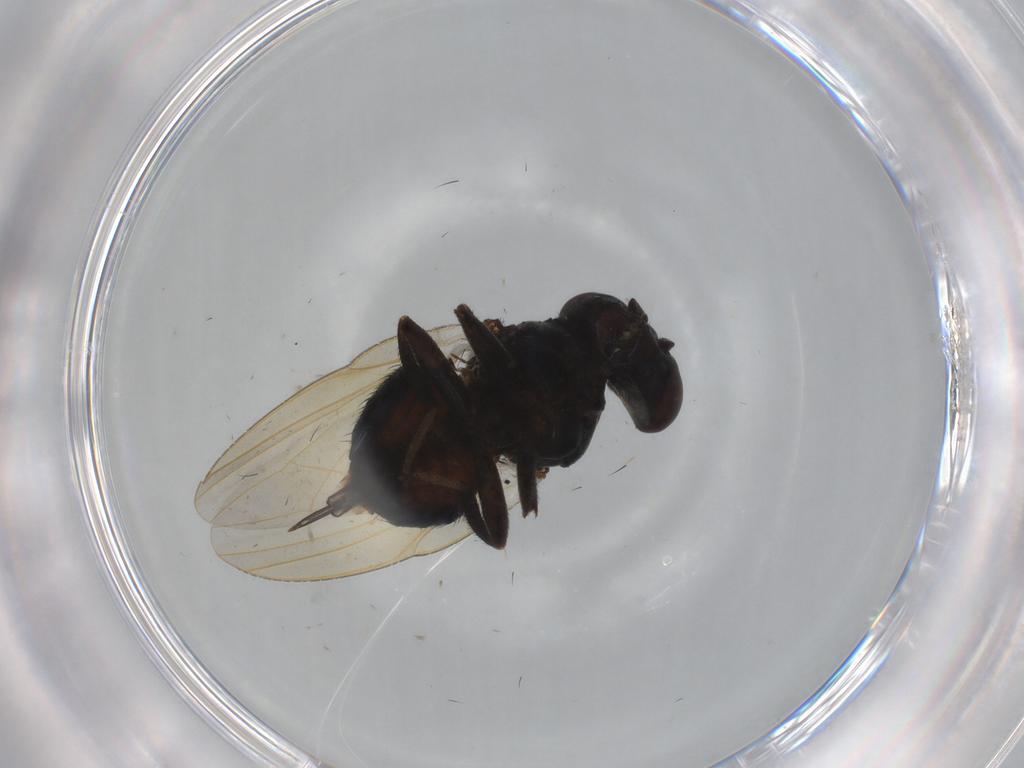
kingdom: Animalia
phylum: Arthropoda
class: Insecta
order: Diptera
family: Lonchaeidae
